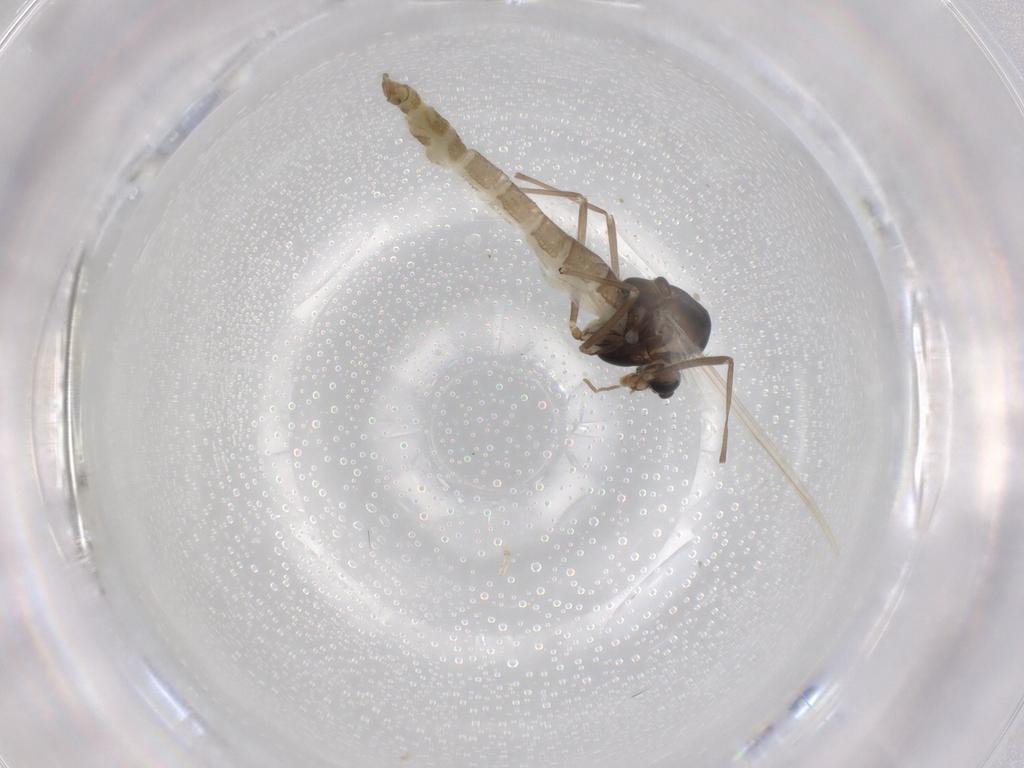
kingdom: Animalia
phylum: Arthropoda
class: Insecta
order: Diptera
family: Chironomidae
